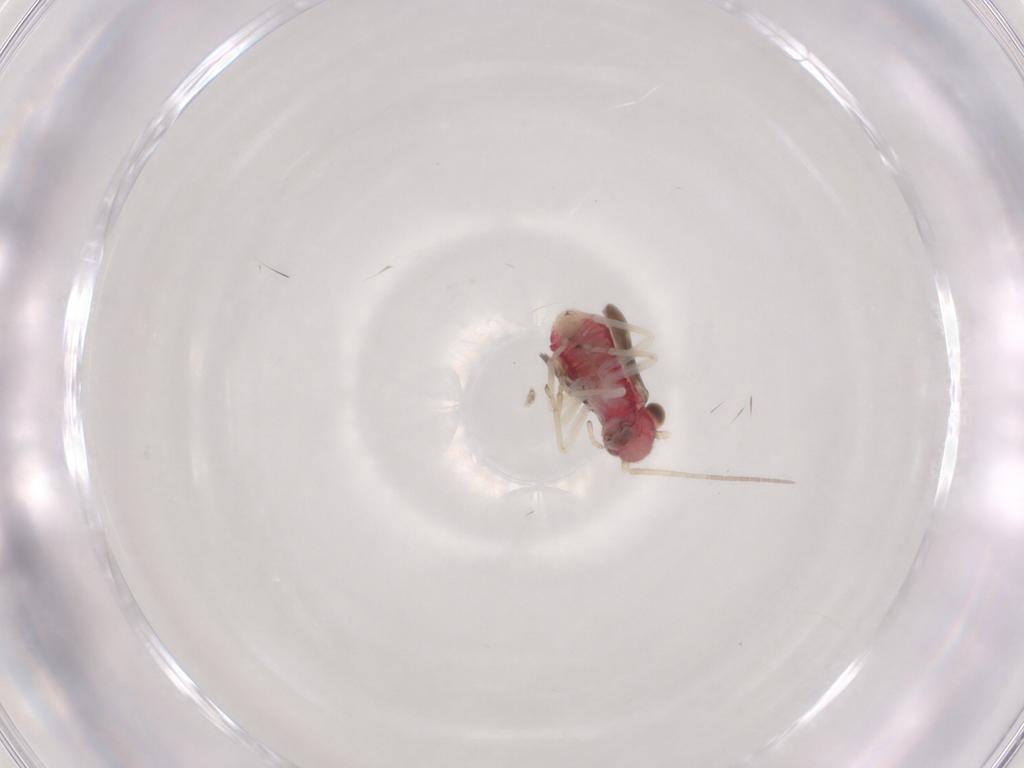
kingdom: Animalia
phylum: Arthropoda
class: Insecta
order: Psocodea
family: Caeciliusidae
